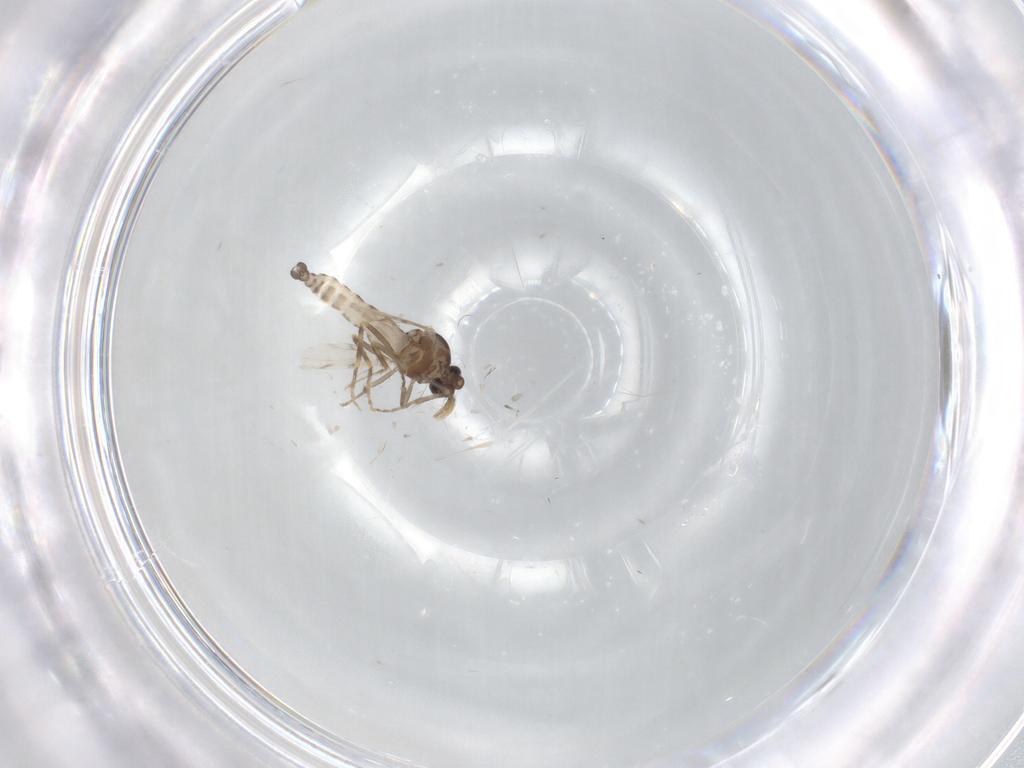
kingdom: Animalia
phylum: Arthropoda
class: Insecta
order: Diptera
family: Ceratopogonidae
